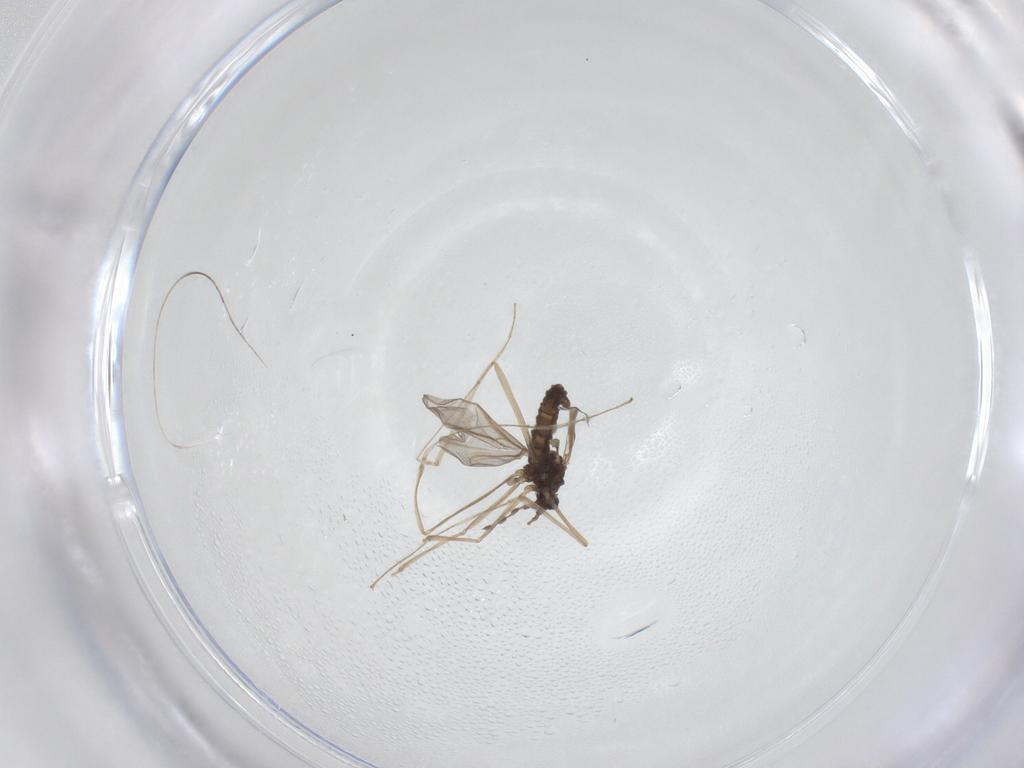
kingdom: Animalia
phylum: Arthropoda
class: Insecta
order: Diptera
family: Cecidomyiidae
